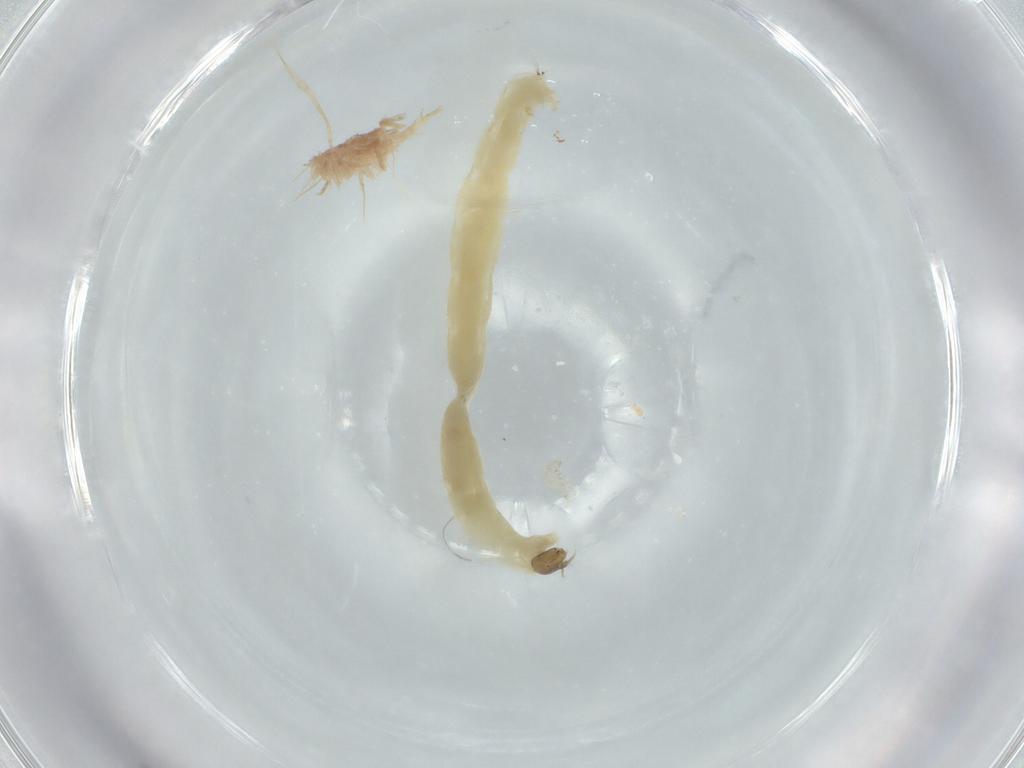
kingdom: Animalia
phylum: Arthropoda
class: Insecta
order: Diptera
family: Chironomidae
